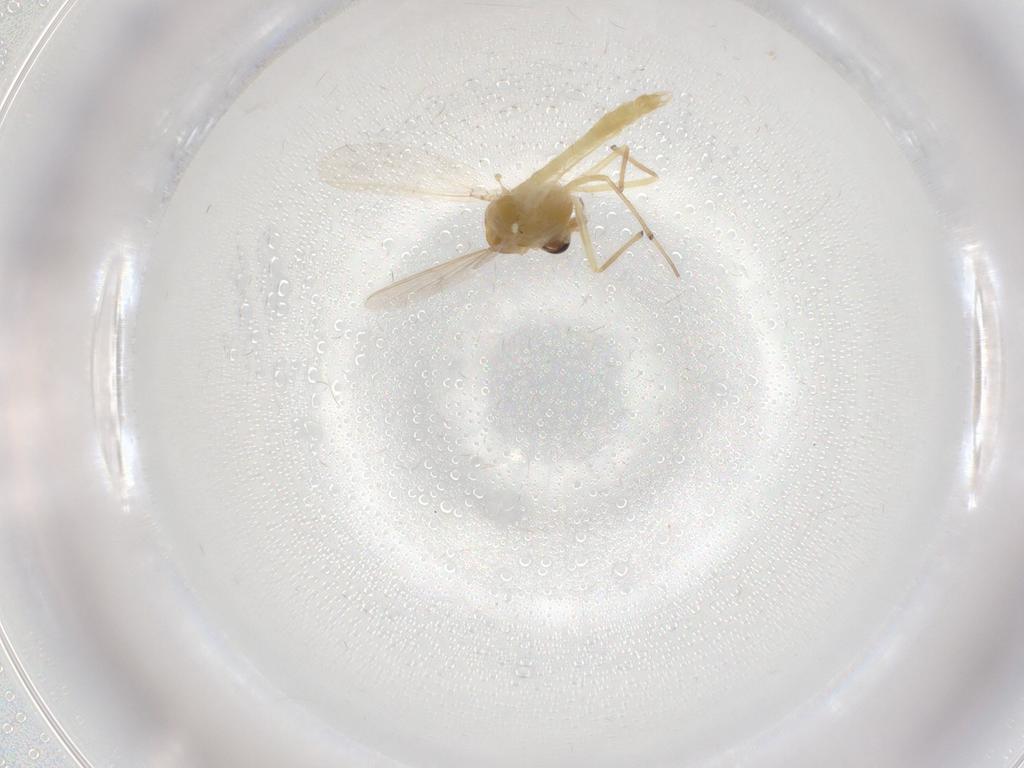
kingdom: Animalia
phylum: Arthropoda
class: Insecta
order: Diptera
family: Chironomidae
